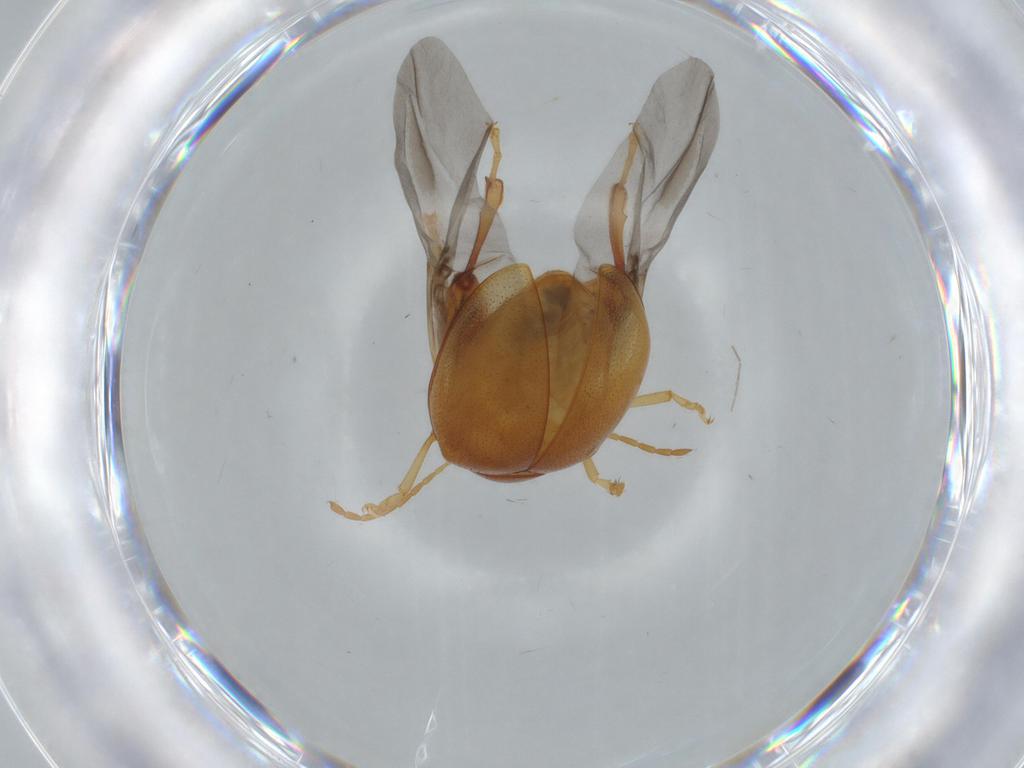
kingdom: Animalia
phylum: Arthropoda
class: Insecta
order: Coleoptera
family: Chrysomelidae
